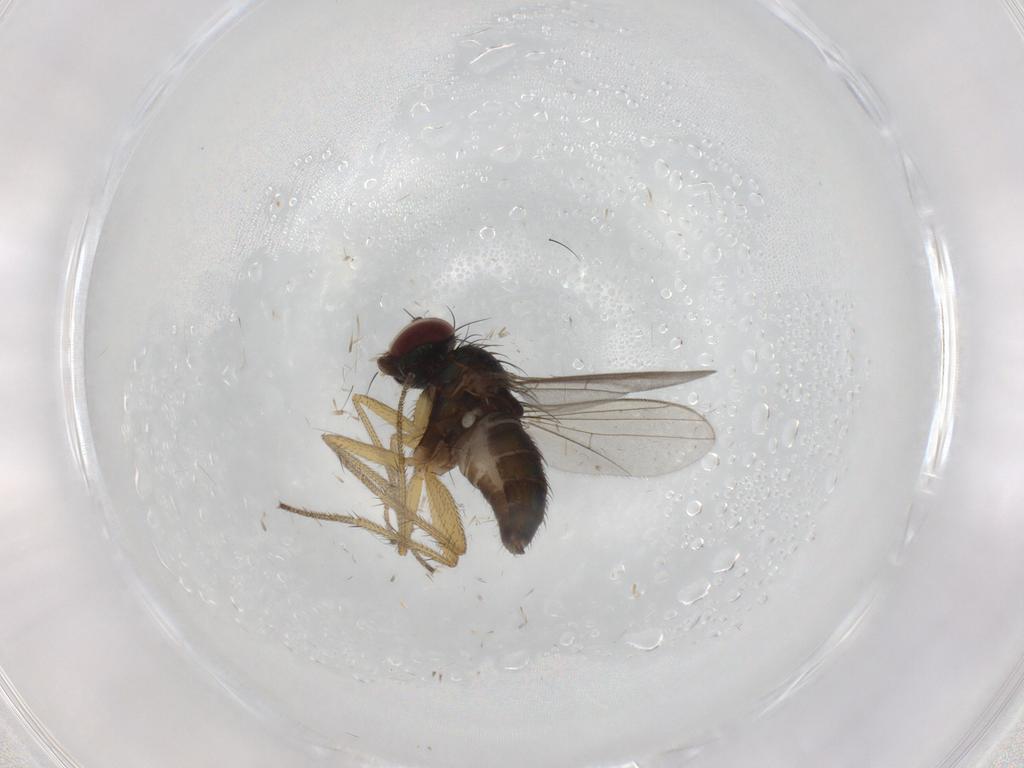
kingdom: Animalia
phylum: Arthropoda
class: Insecta
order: Diptera
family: Dolichopodidae
